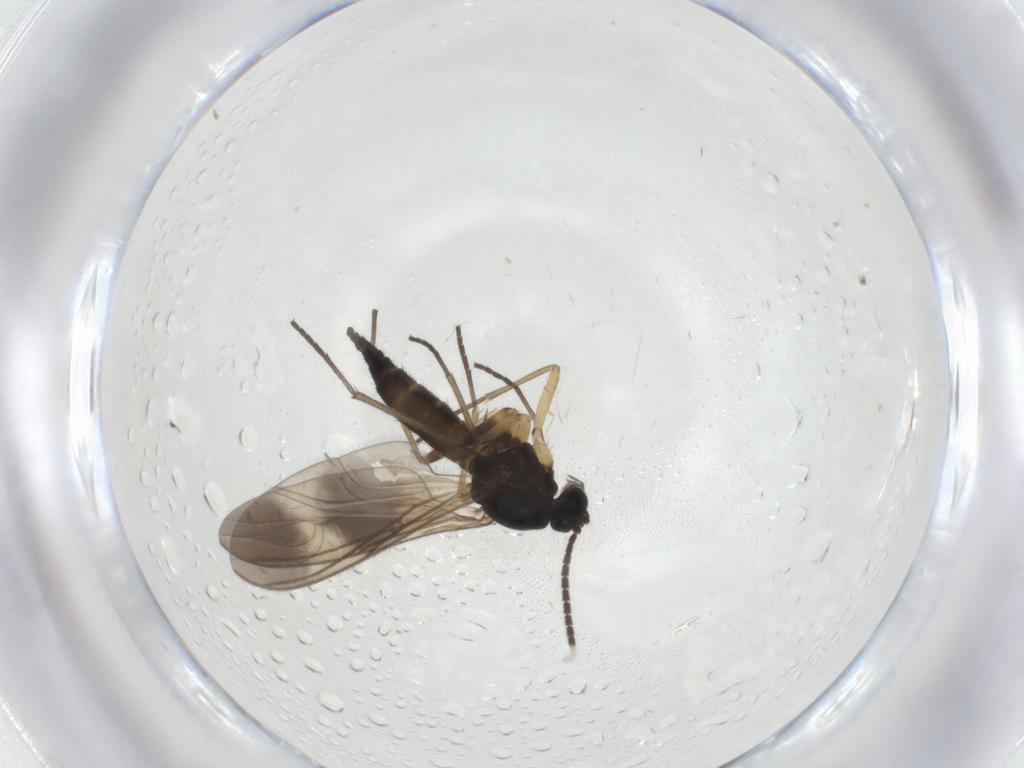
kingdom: Animalia
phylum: Arthropoda
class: Insecta
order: Diptera
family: Sciaridae
